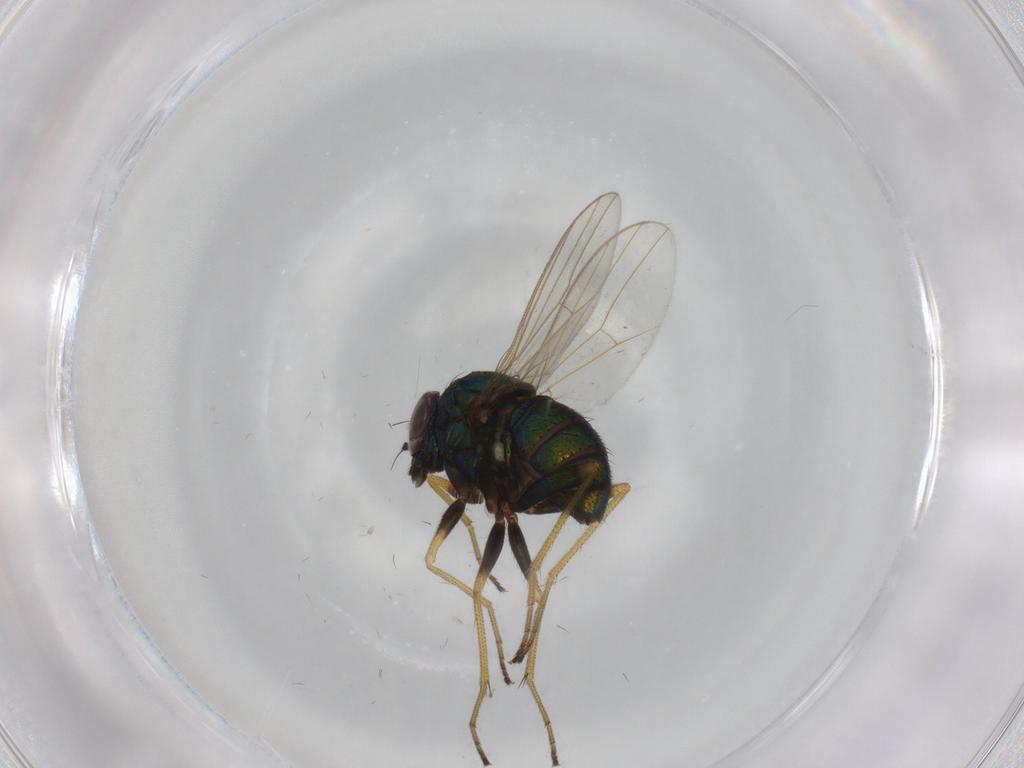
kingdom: Animalia
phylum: Arthropoda
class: Insecta
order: Diptera
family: Dolichopodidae
